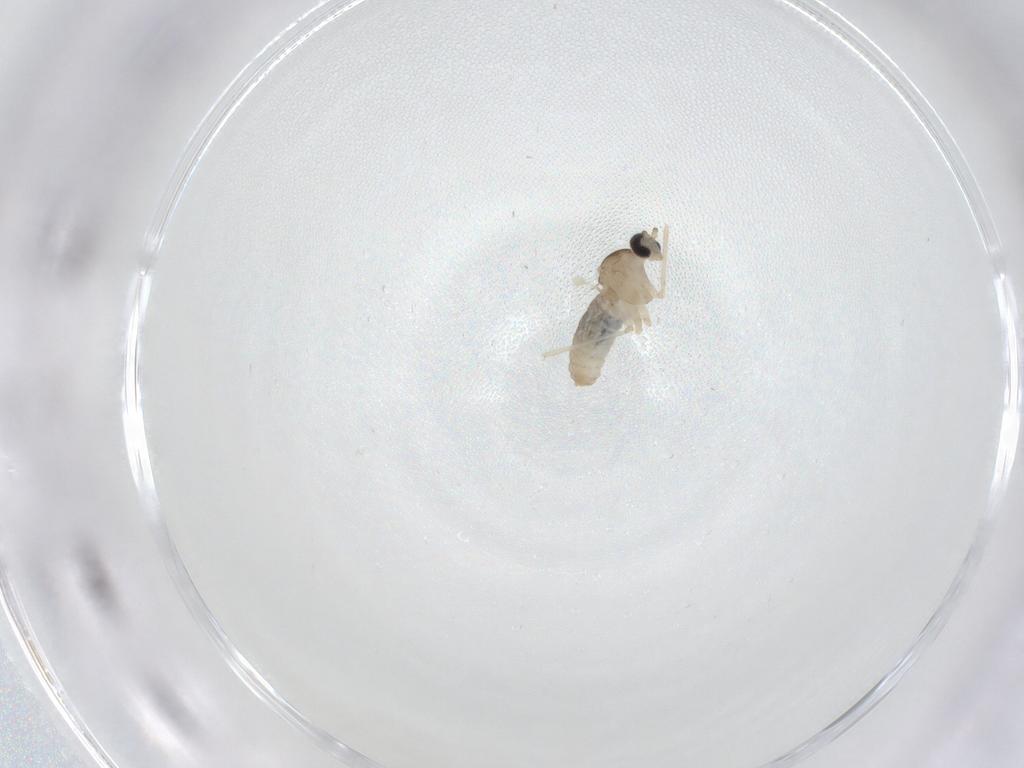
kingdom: Animalia
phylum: Arthropoda
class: Insecta
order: Diptera
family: Cecidomyiidae
